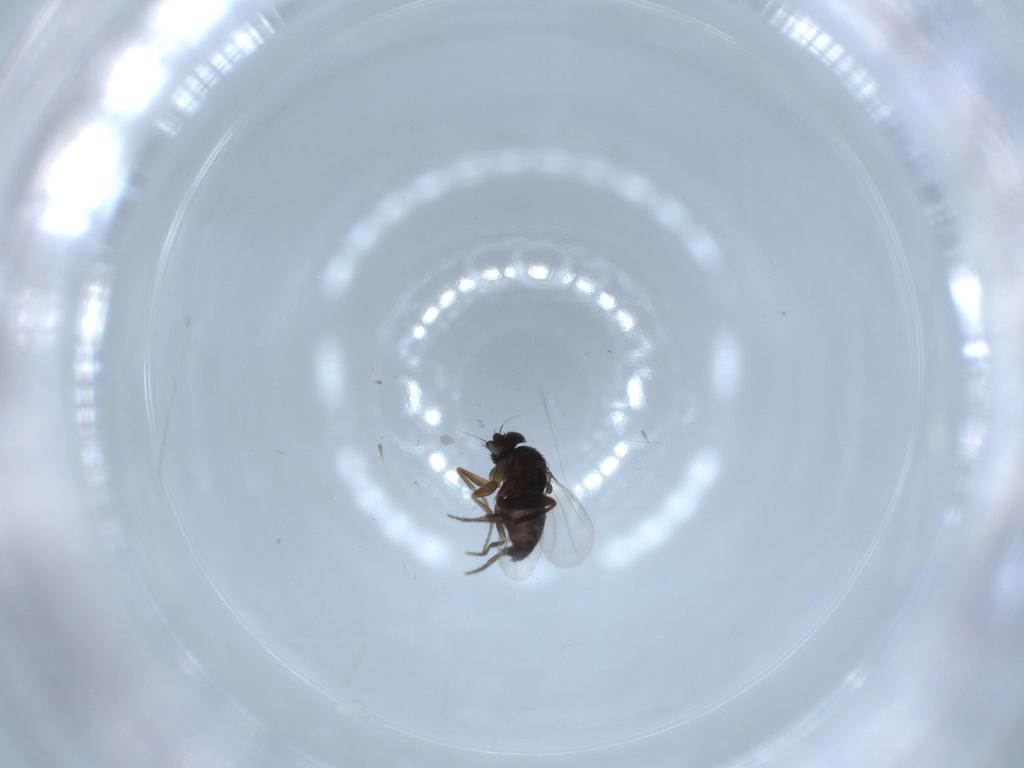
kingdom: Animalia
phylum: Arthropoda
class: Insecta
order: Diptera
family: Phoridae
